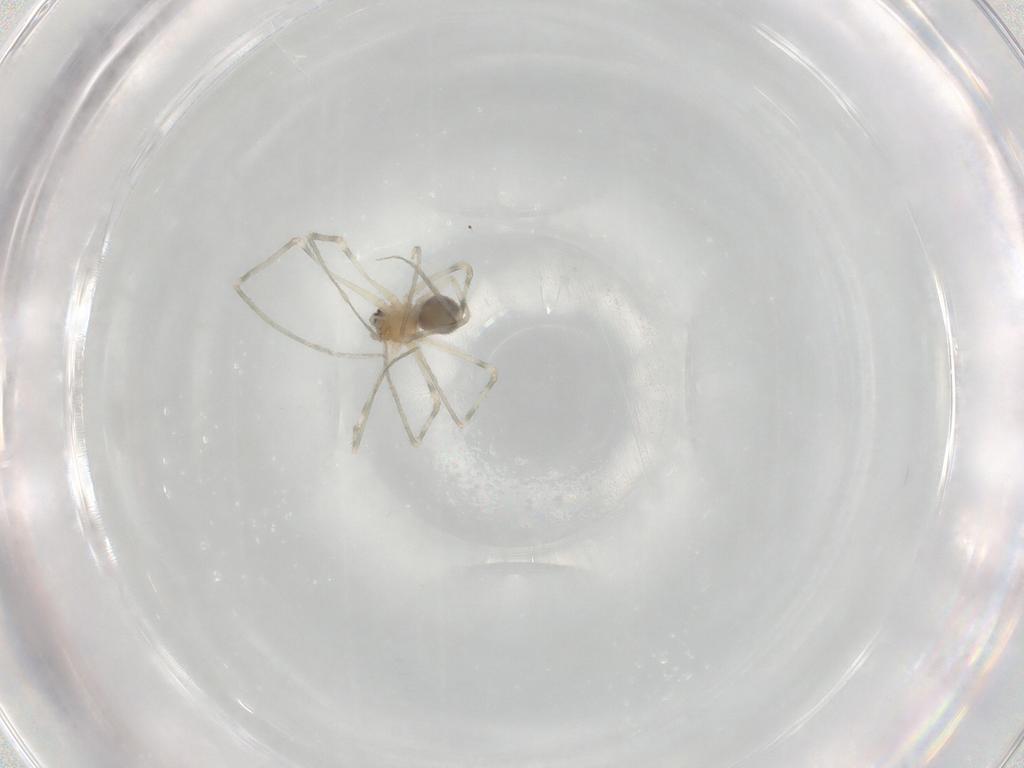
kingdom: Animalia
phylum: Arthropoda
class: Arachnida
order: Araneae
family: Pholcidae
